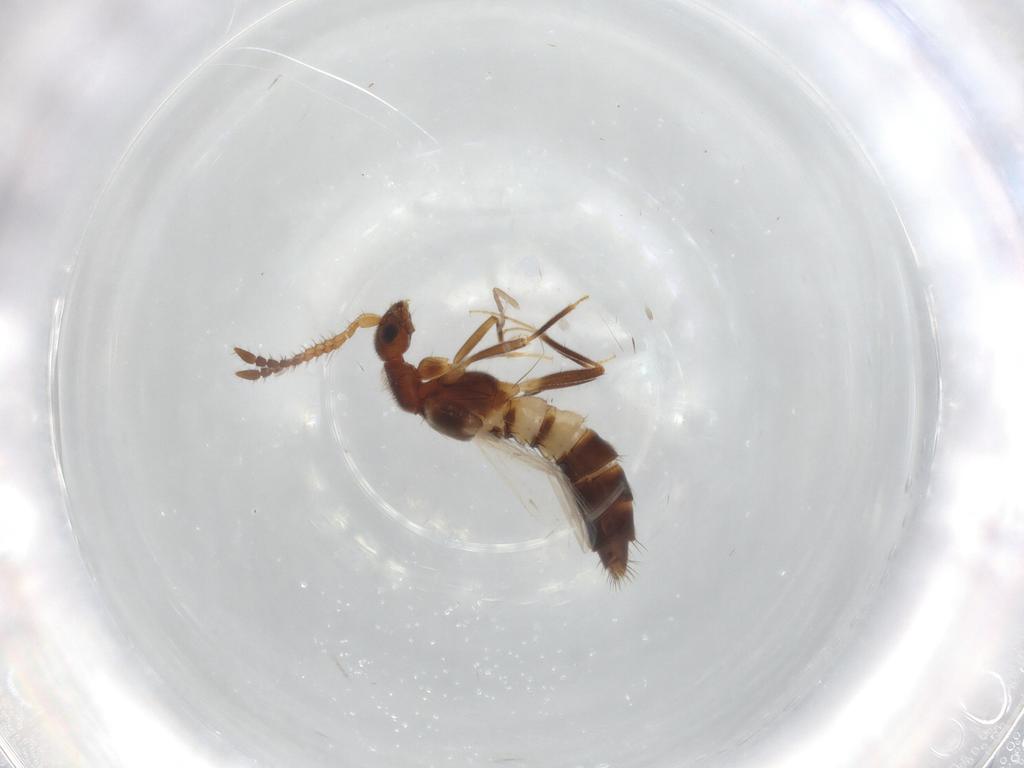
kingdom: Animalia
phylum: Arthropoda
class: Insecta
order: Coleoptera
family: Staphylinidae
